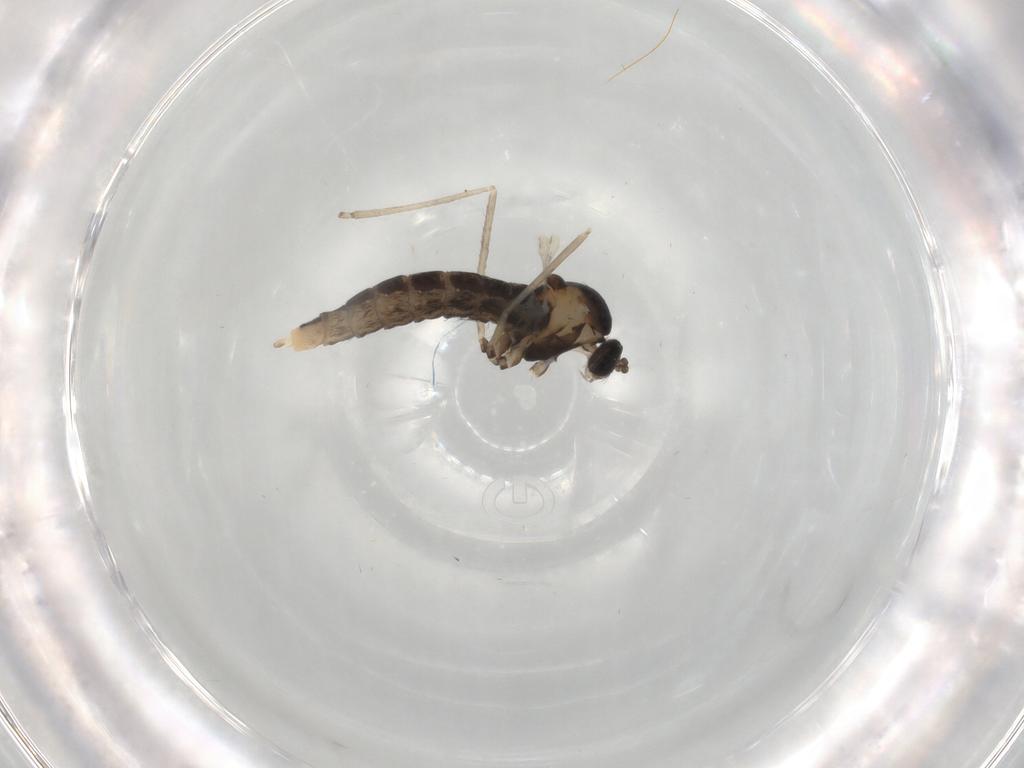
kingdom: Animalia
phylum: Arthropoda
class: Insecta
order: Diptera
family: Cecidomyiidae
